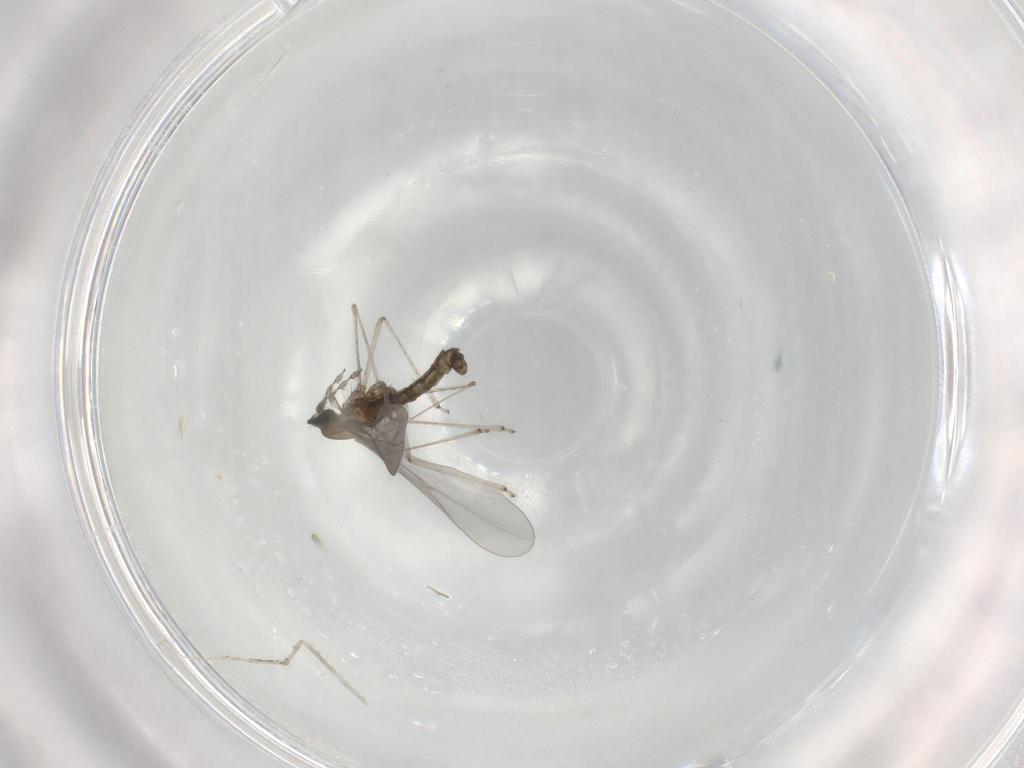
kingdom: Animalia
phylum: Arthropoda
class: Insecta
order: Diptera
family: Cecidomyiidae
